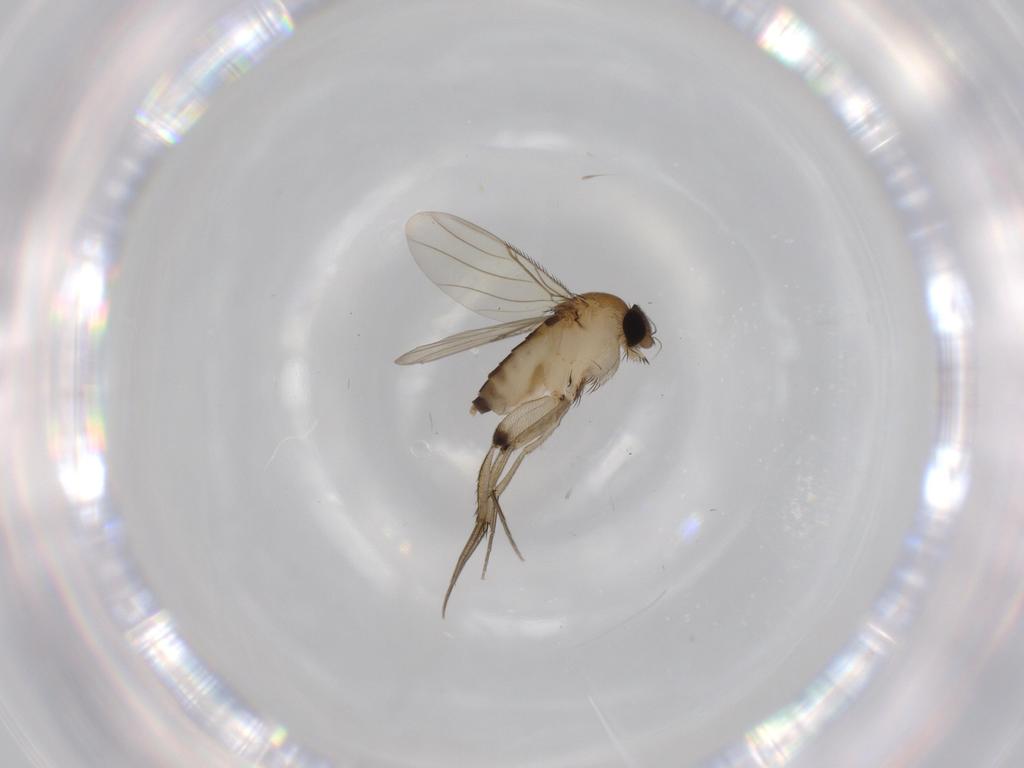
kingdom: Animalia
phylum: Arthropoda
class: Insecta
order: Diptera
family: Phoridae
